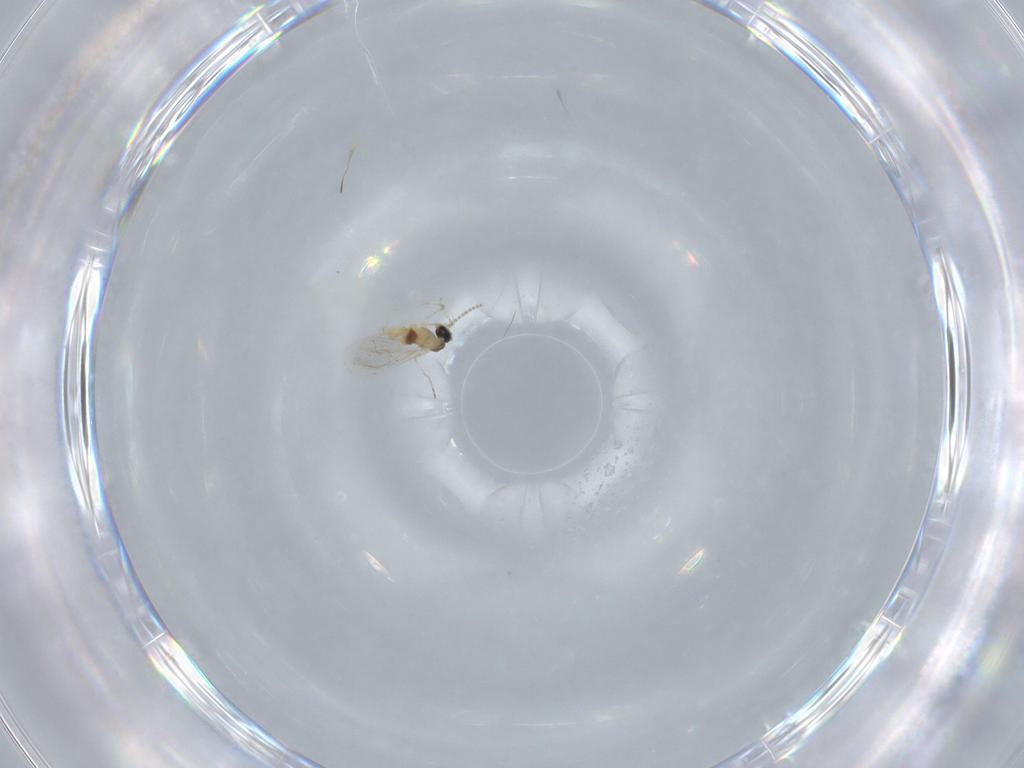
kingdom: Animalia
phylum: Arthropoda
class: Insecta
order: Diptera
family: Cecidomyiidae
